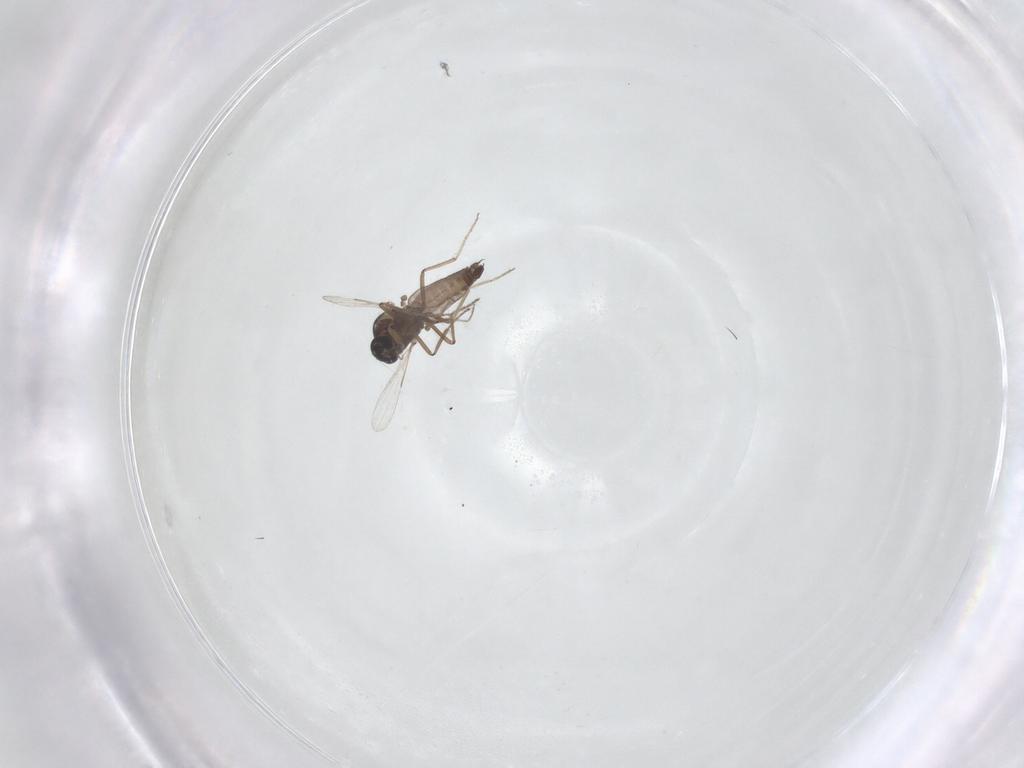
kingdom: Animalia
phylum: Arthropoda
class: Insecta
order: Diptera
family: Ceratopogonidae
